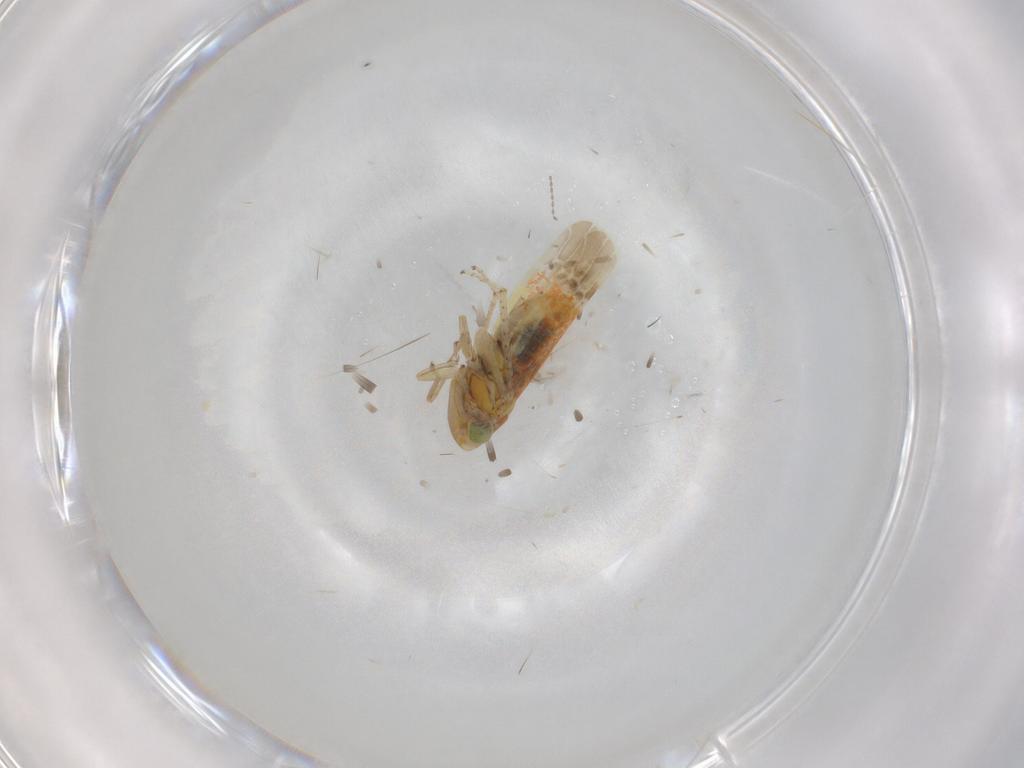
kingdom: Animalia
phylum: Arthropoda
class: Insecta
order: Hemiptera
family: Cicadellidae
